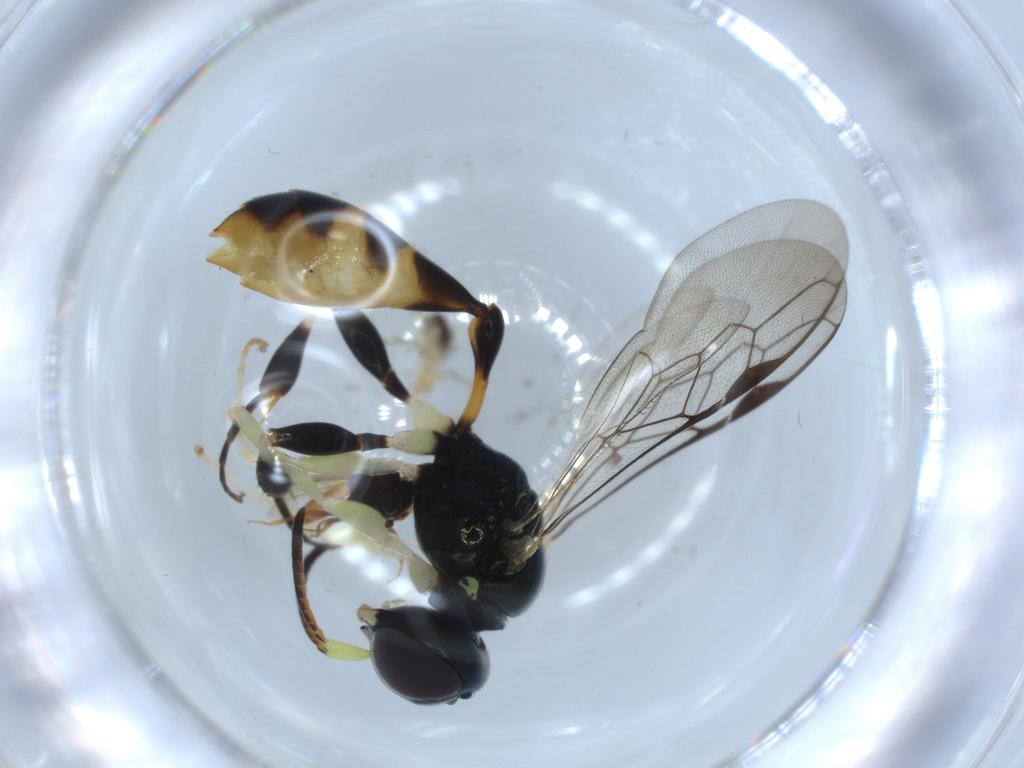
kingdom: Animalia
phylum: Arthropoda
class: Insecta
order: Hymenoptera
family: Crabronidae
